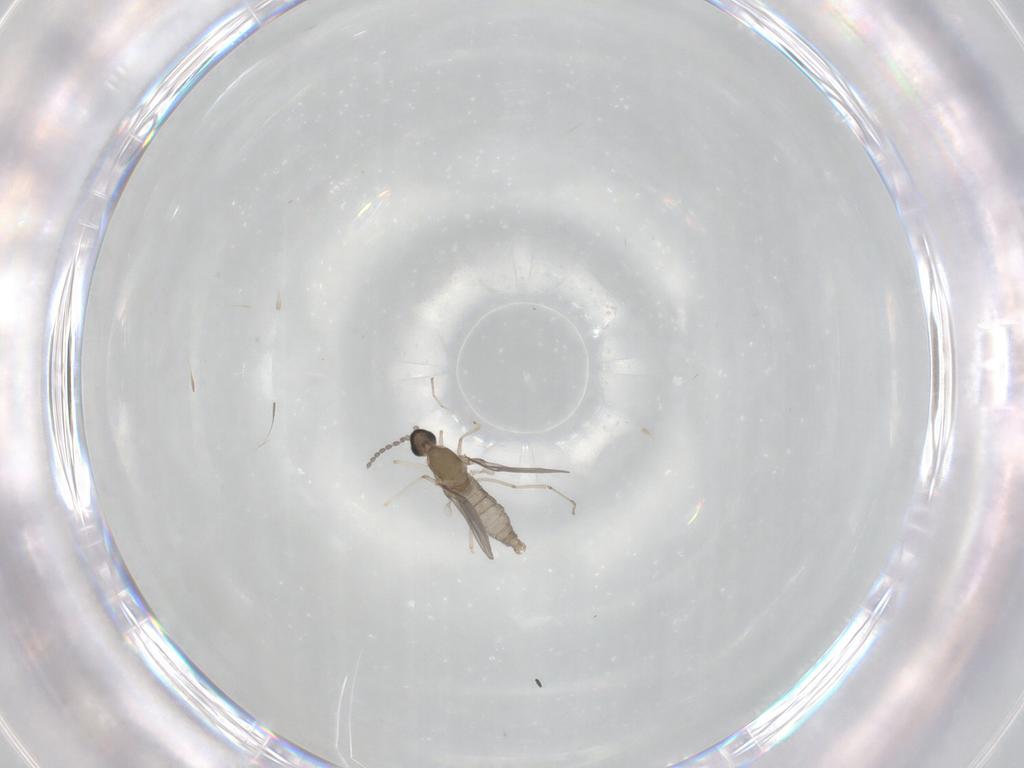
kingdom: Animalia
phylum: Arthropoda
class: Insecta
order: Diptera
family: Cecidomyiidae
